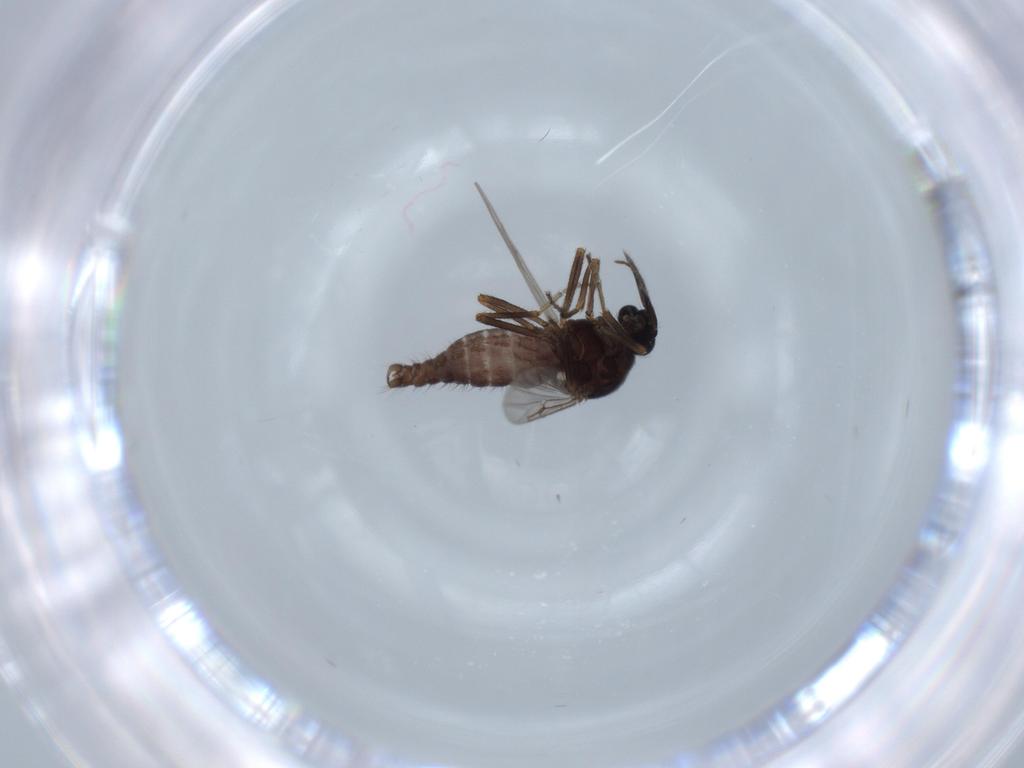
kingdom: Animalia
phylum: Arthropoda
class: Insecta
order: Diptera
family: Ceratopogonidae
